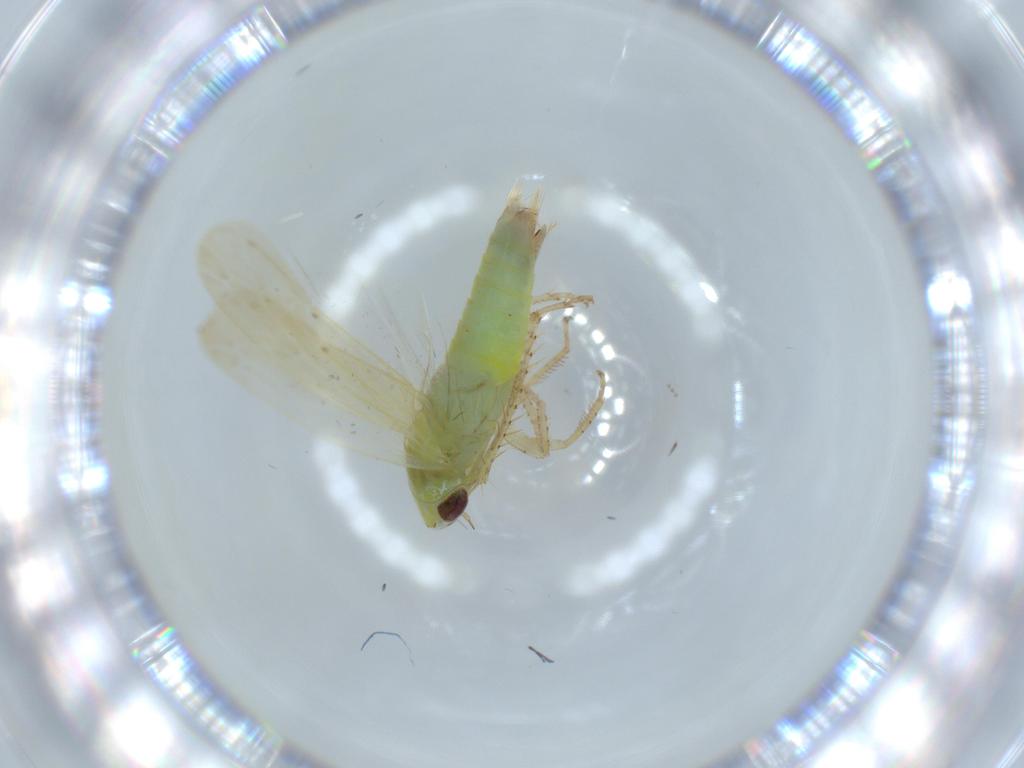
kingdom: Animalia
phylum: Arthropoda
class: Insecta
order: Hemiptera
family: Cicadellidae
